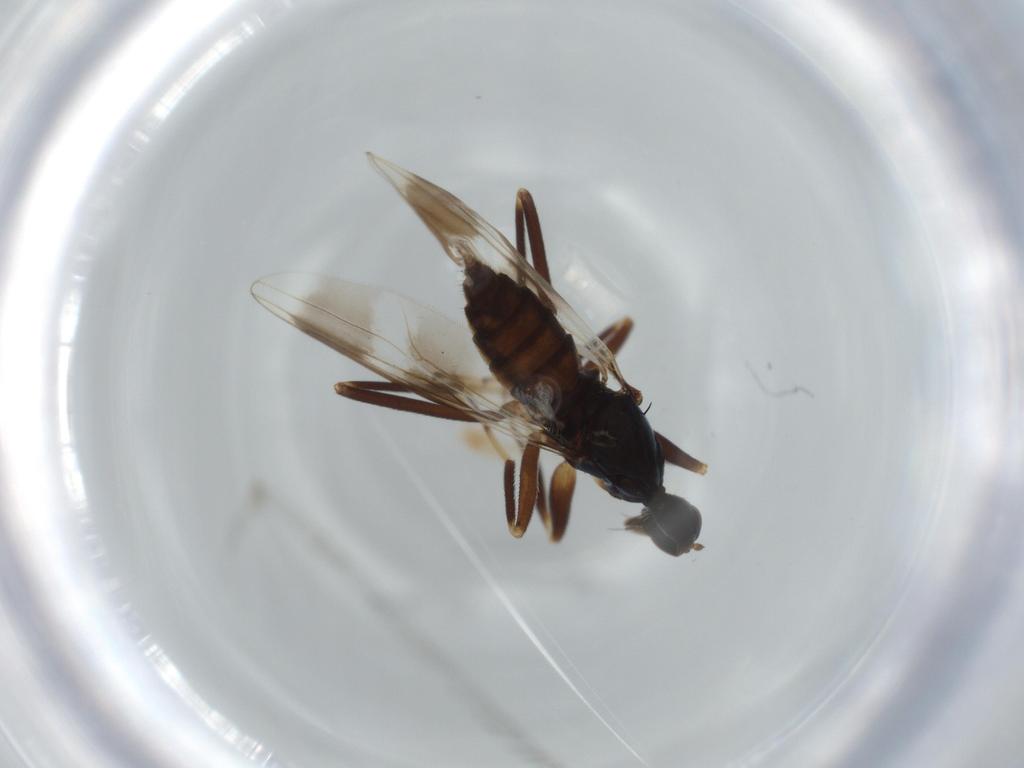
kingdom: Animalia
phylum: Arthropoda
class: Insecta
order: Diptera
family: Hybotidae
